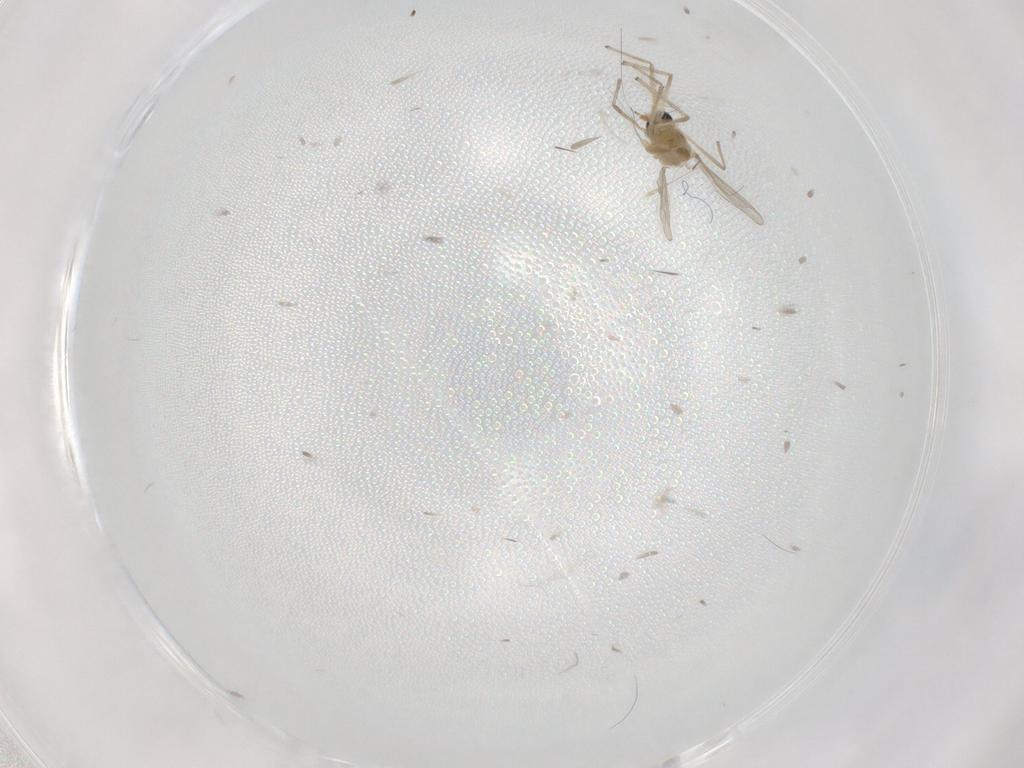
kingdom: Animalia
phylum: Arthropoda
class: Insecta
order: Diptera
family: Chironomidae
